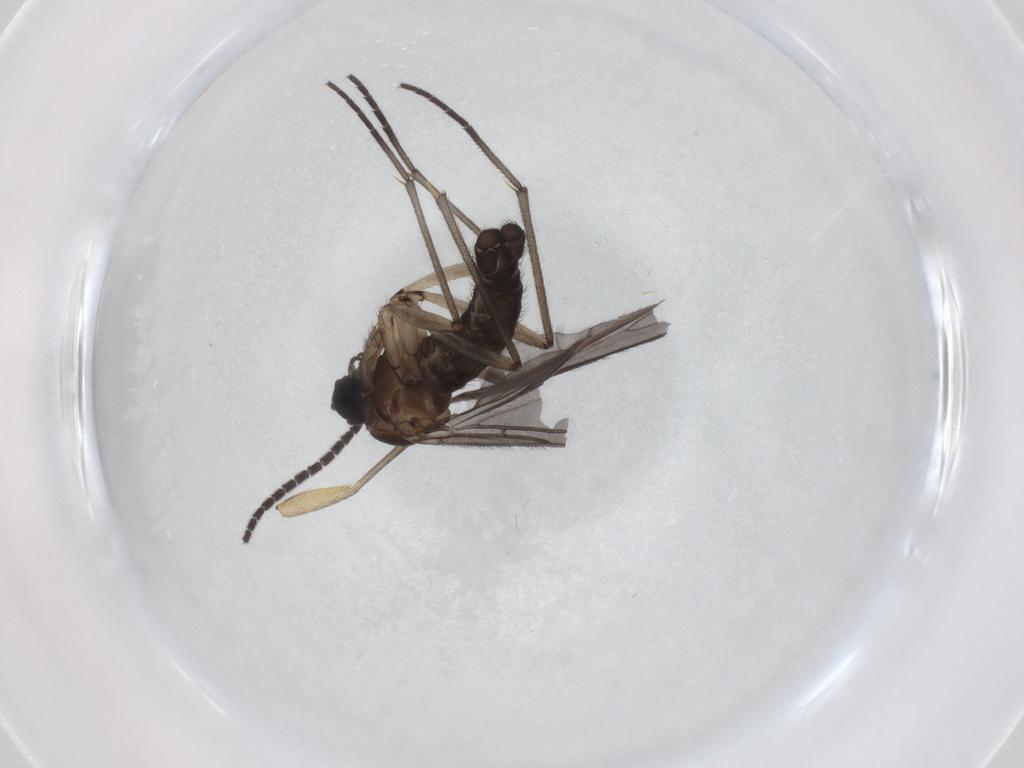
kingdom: Animalia
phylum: Arthropoda
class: Insecta
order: Diptera
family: Sciaridae
